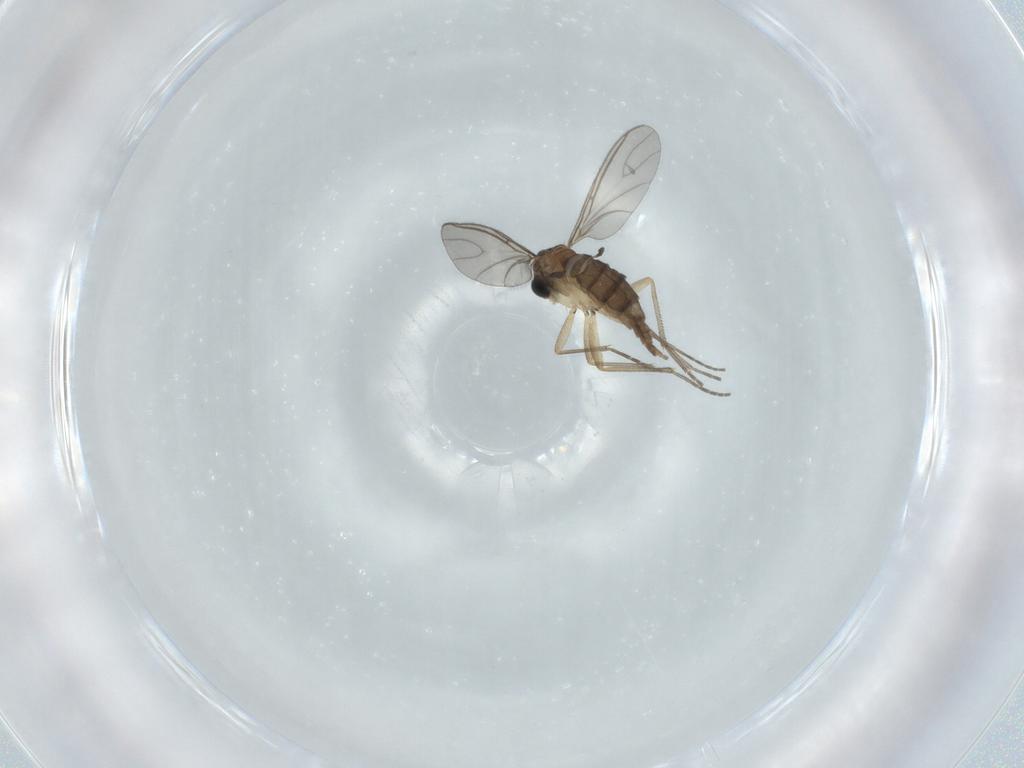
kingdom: Animalia
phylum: Arthropoda
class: Insecta
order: Diptera
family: Sciaridae
